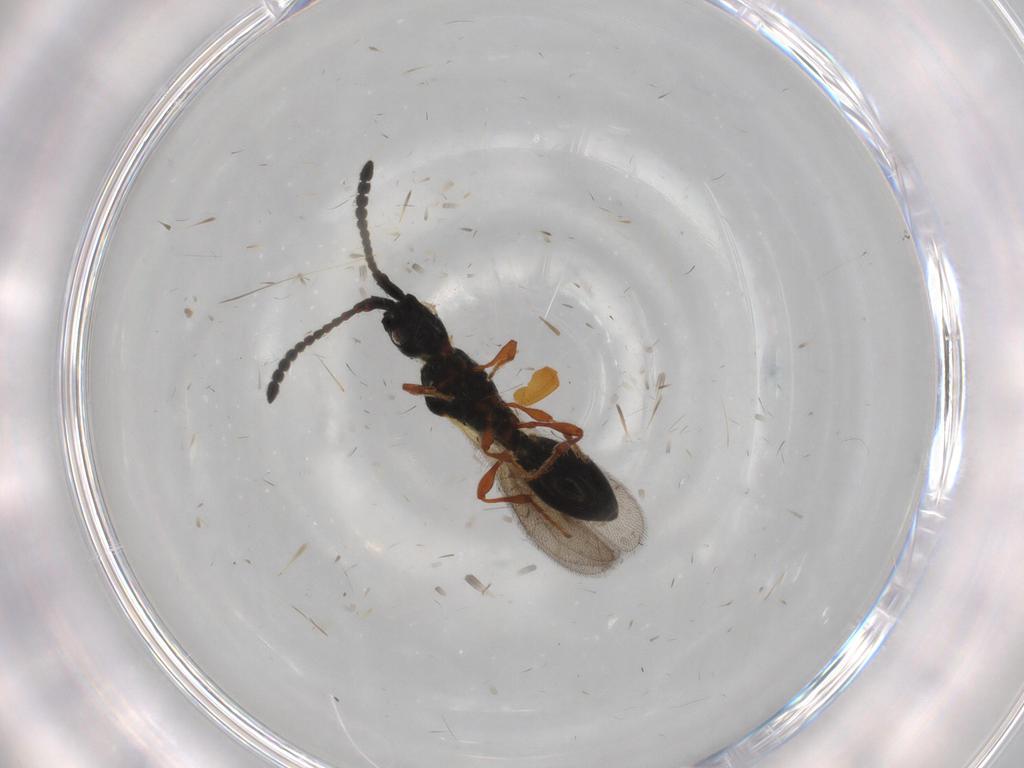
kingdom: Animalia
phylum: Arthropoda
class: Insecta
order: Hymenoptera
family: Diapriidae
